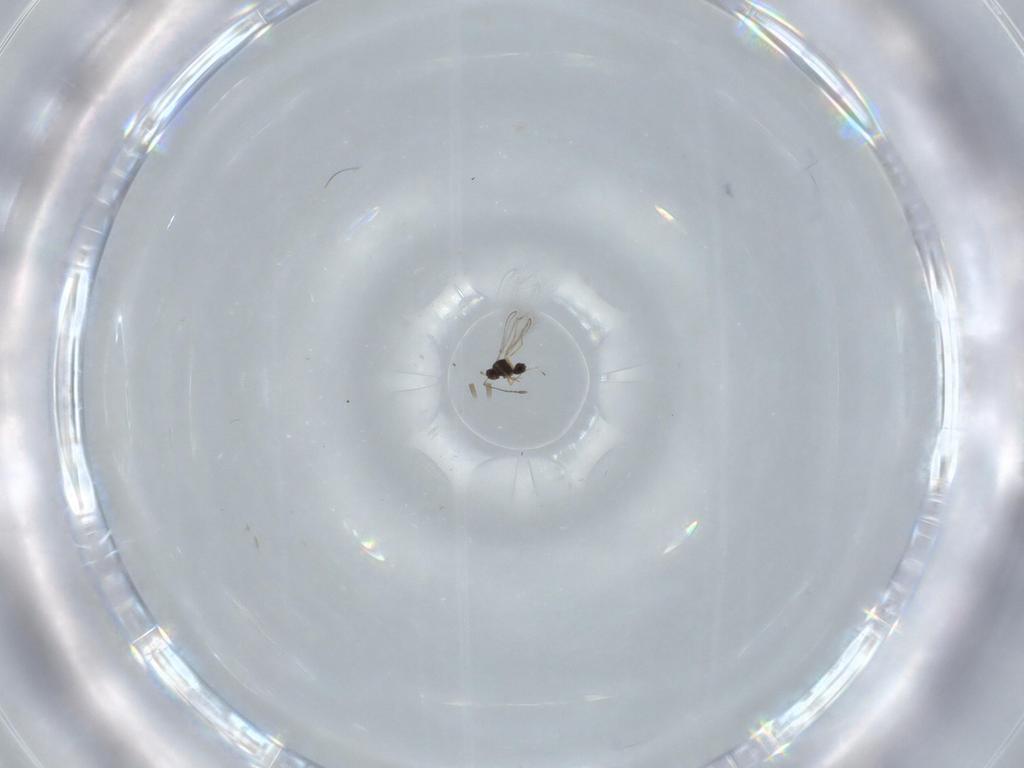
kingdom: Animalia
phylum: Arthropoda
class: Insecta
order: Hymenoptera
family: Mymaridae
